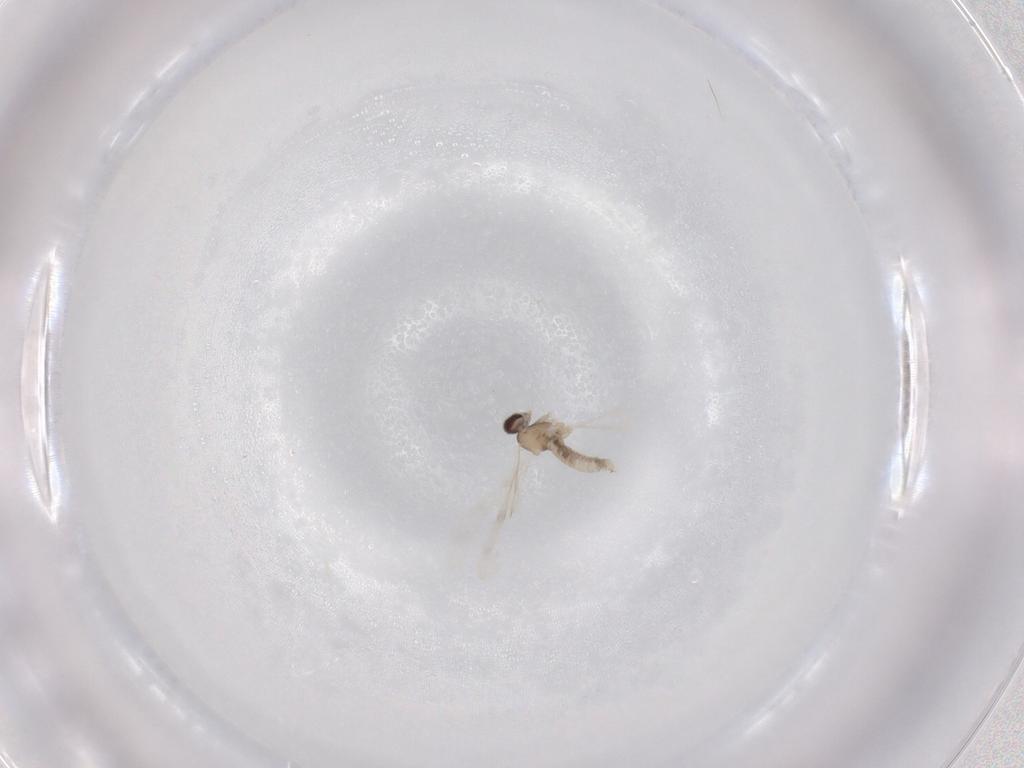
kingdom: Animalia
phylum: Arthropoda
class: Insecta
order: Diptera
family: Cecidomyiidae
